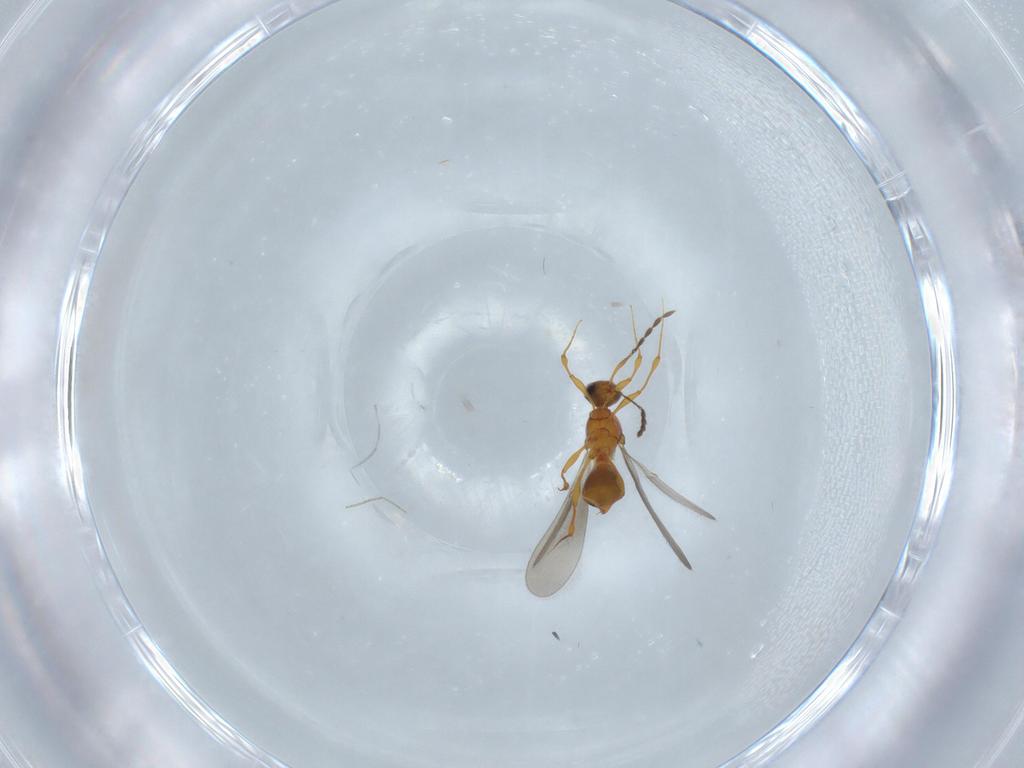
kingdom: Animalia
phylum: Arthropoda
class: Insecta
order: Hymenoptera
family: Platygastridae
